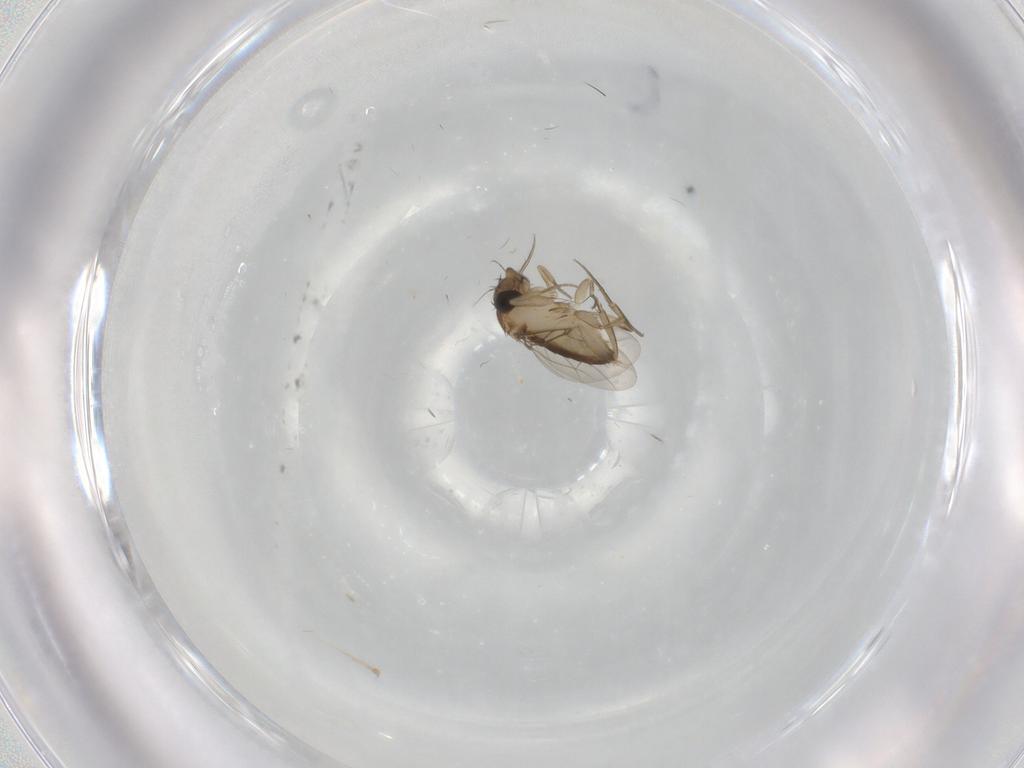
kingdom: Animalia
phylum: Arthropoda
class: Insecta
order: Diptera
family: Phoridae
